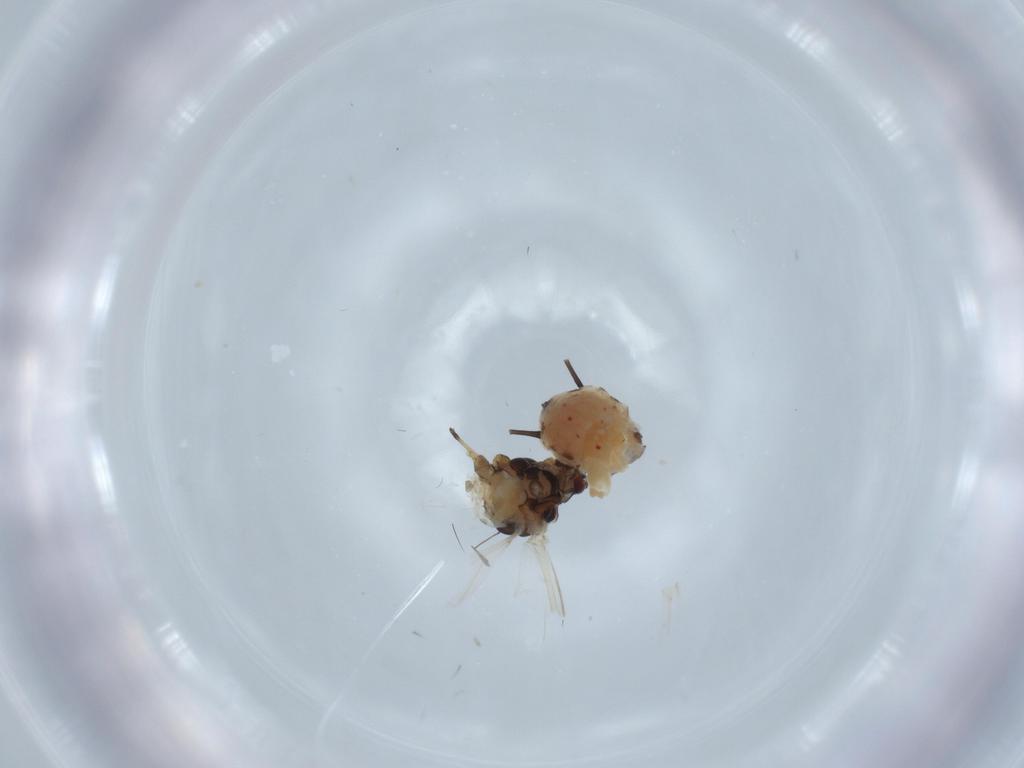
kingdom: Animalia
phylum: Arthropoda
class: Insecta
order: Hemiptera
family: Aphididae
